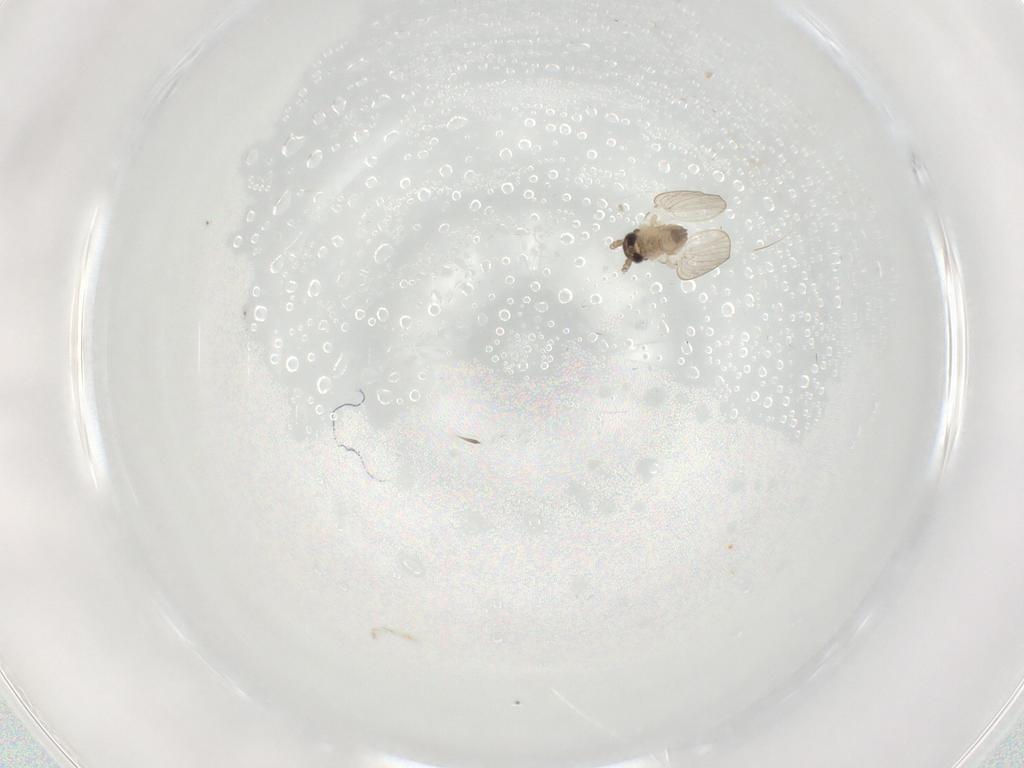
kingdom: Animalia
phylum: Arthropoda
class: Insecta
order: Diptera
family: Psychodidae
